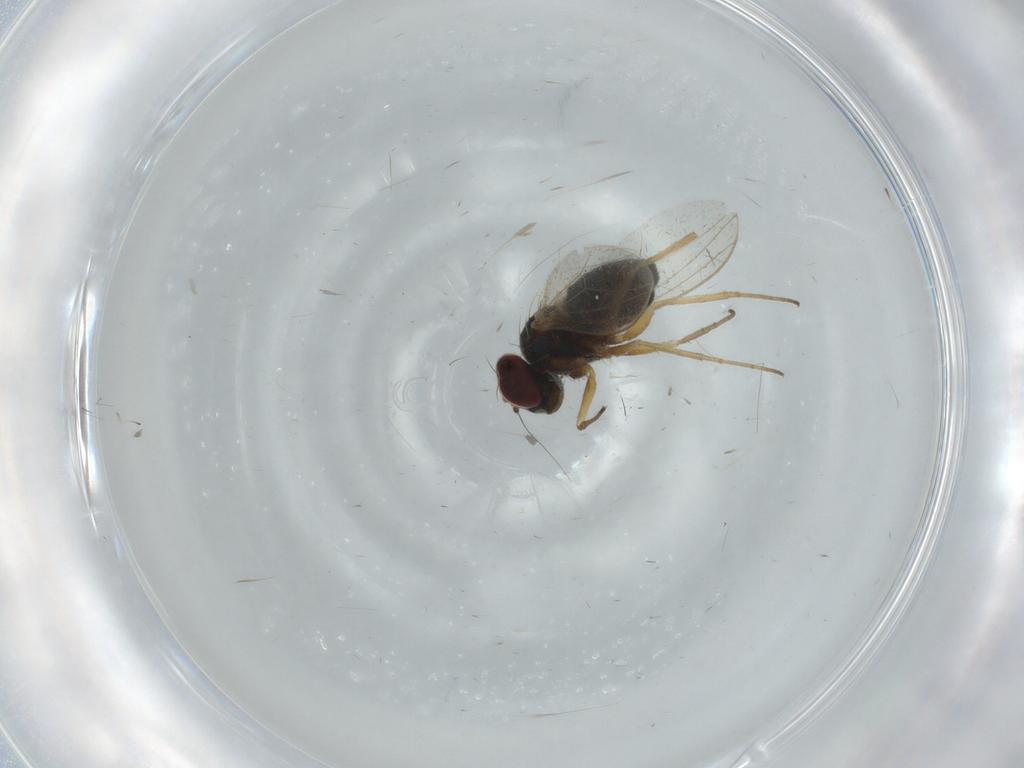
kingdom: Animalia
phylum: Arthropoda
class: Insecta
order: Diptera
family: Dolichopodidae
